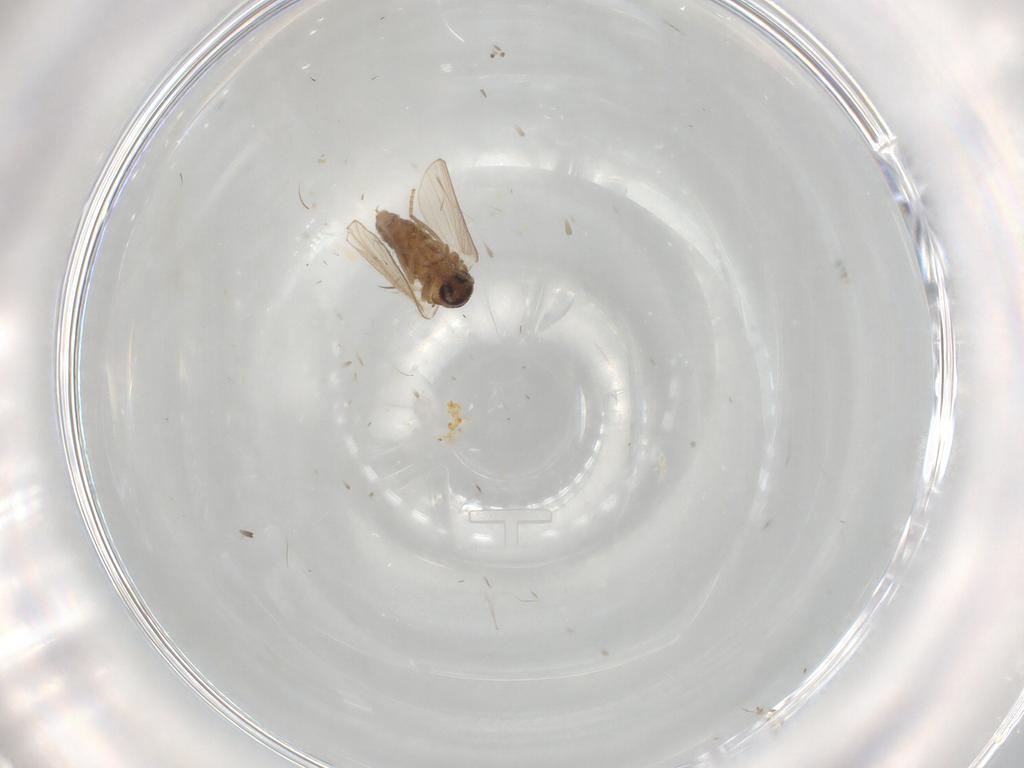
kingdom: Animalia
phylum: Arthropoda
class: Insecta
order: Diptera
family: Psychodidae
